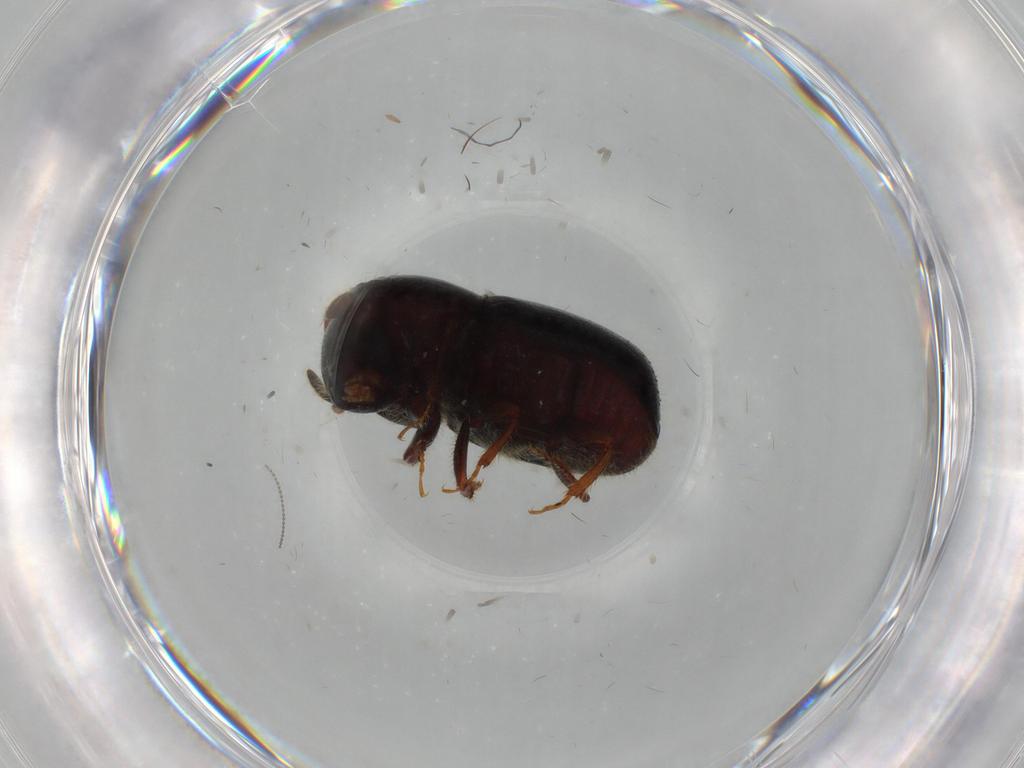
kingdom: Animalia
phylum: Arthropoda
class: Insecta
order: Coleoptera
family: Curculionidae
